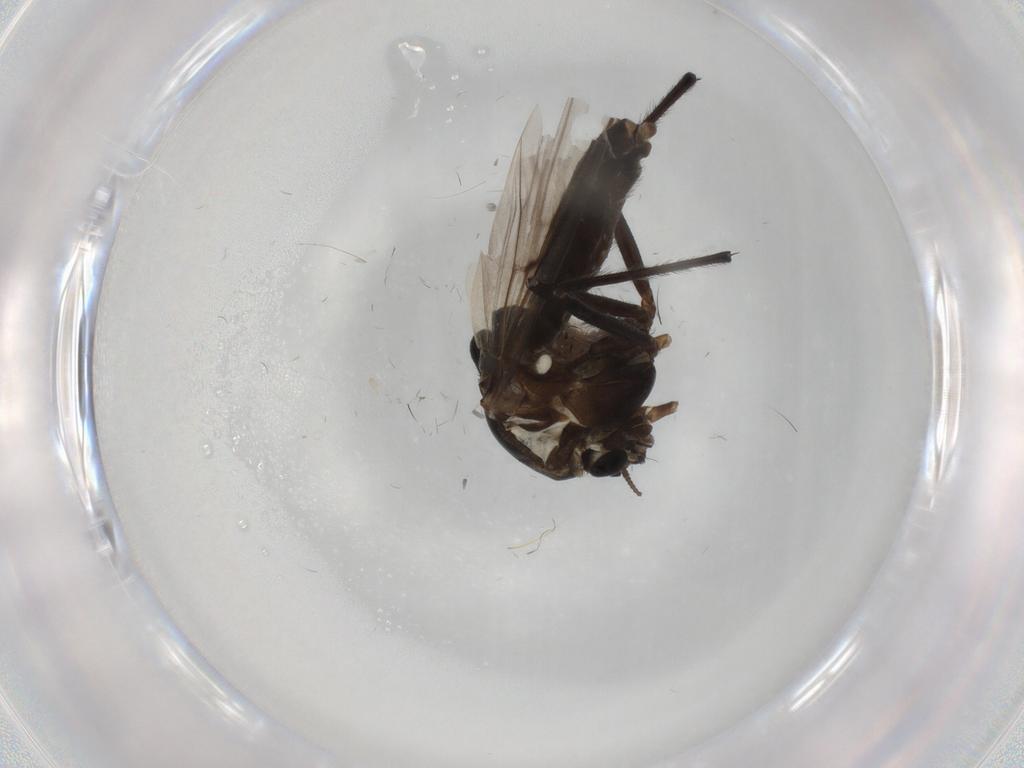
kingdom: Animalia
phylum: Arthropoda
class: Insecta
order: Diptera
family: Chironomidae
